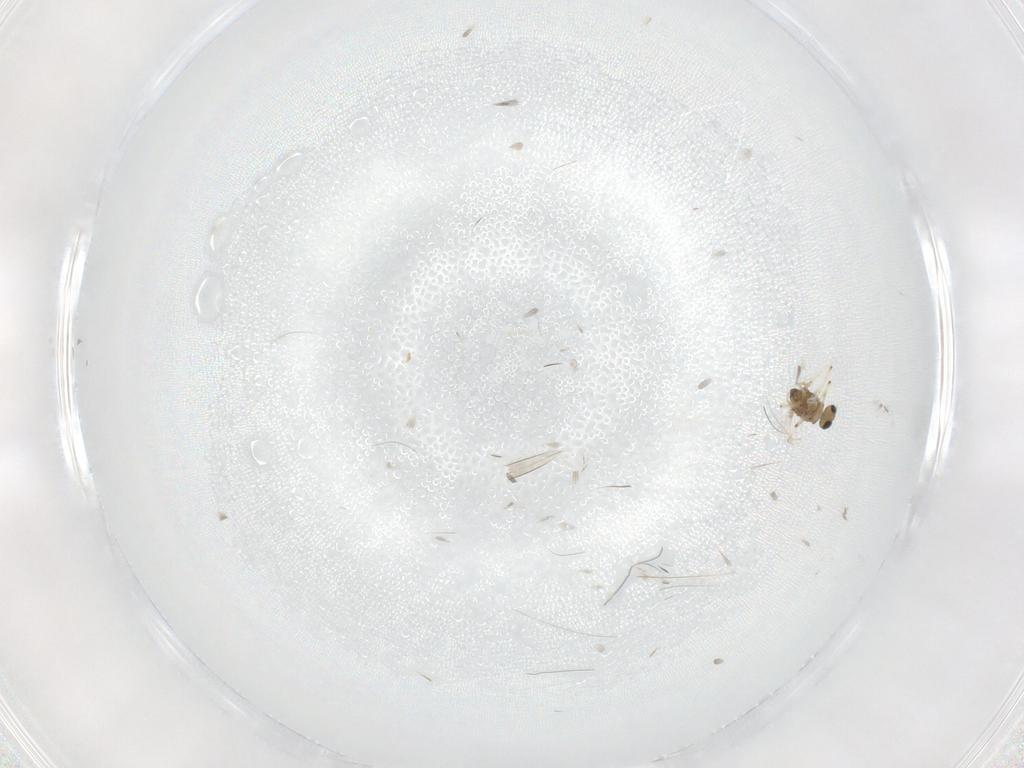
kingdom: Animalia
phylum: Arthropoda
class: Insecta
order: Diptera
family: Chironomidae
